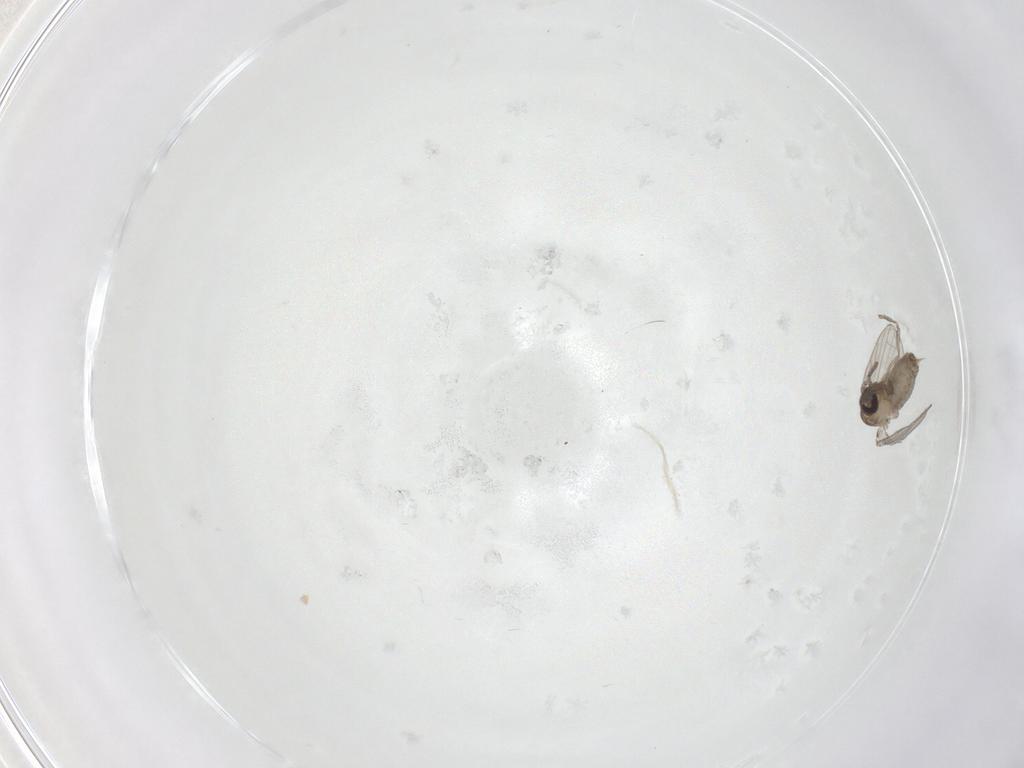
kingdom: Animalia
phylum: Arthropoda
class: Insecta
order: Diptera
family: Psychodidae
